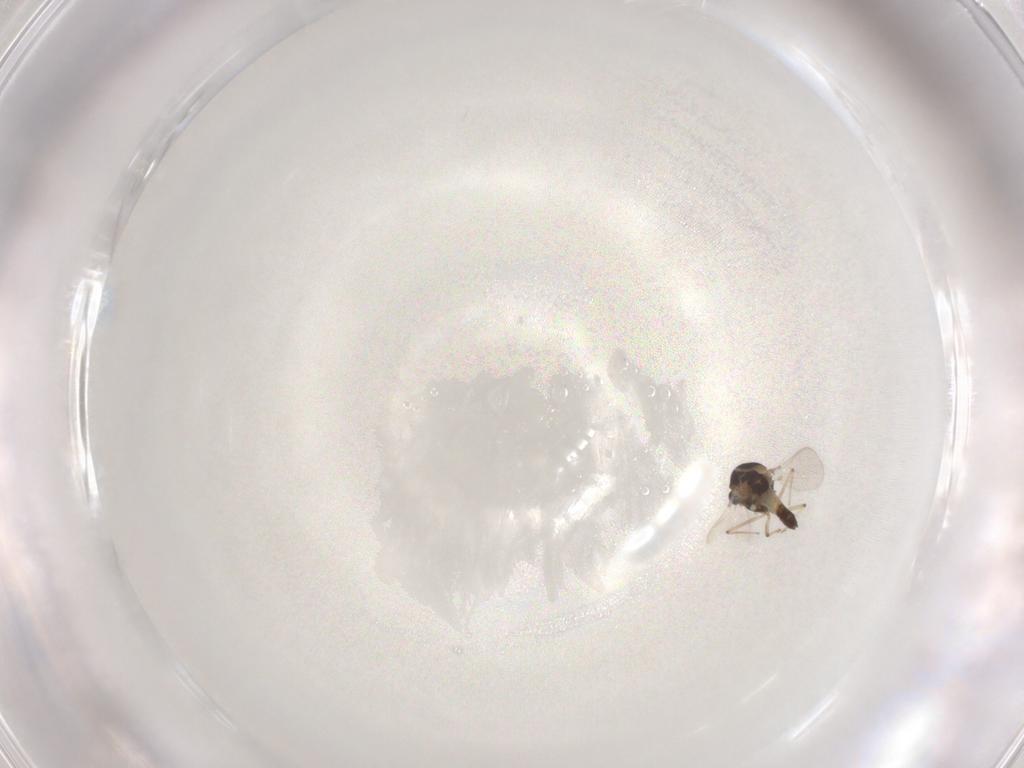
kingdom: Animalia
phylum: Arthropoda
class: Insecta
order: Diptera
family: Chironomidae
